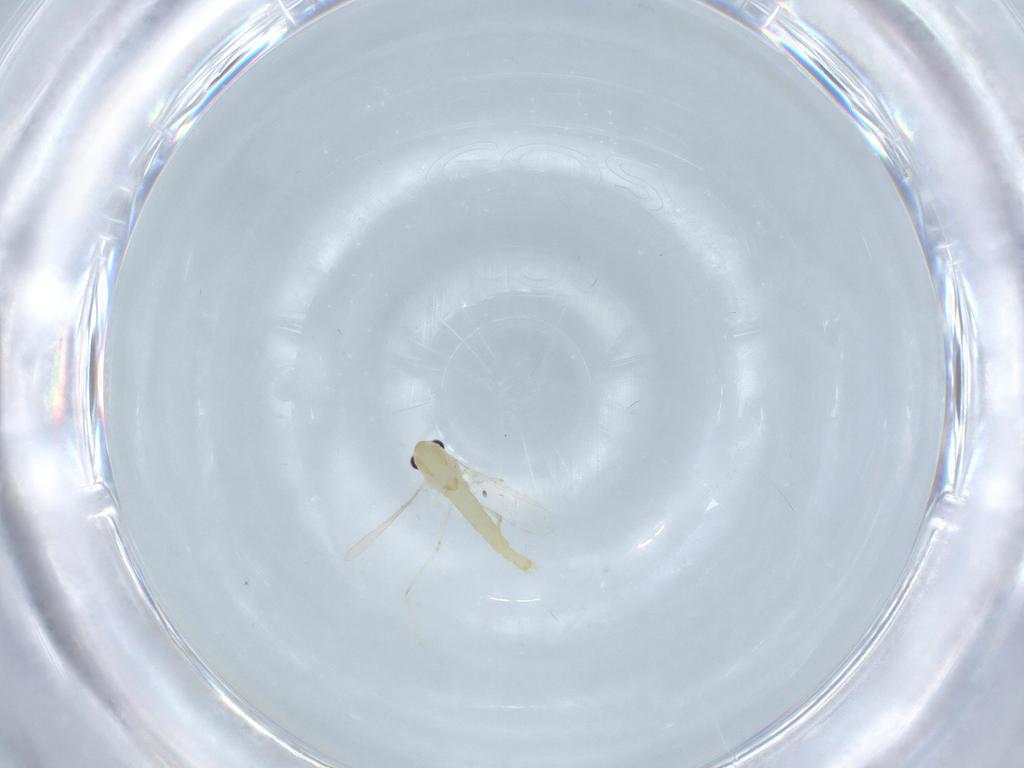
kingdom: Animalia
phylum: Arthropoda
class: Insecta
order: Diptera
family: Chironomidae
